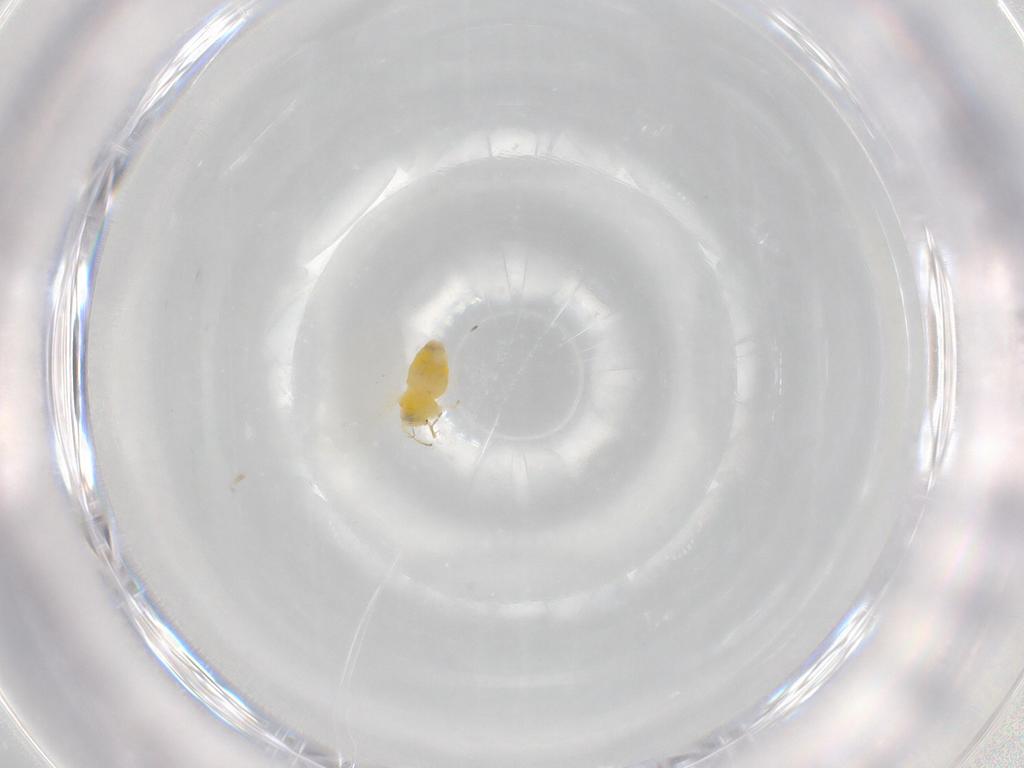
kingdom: Animalia
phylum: Arthropoda
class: Insecta
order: Hemiptera
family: Aleyrodidae
